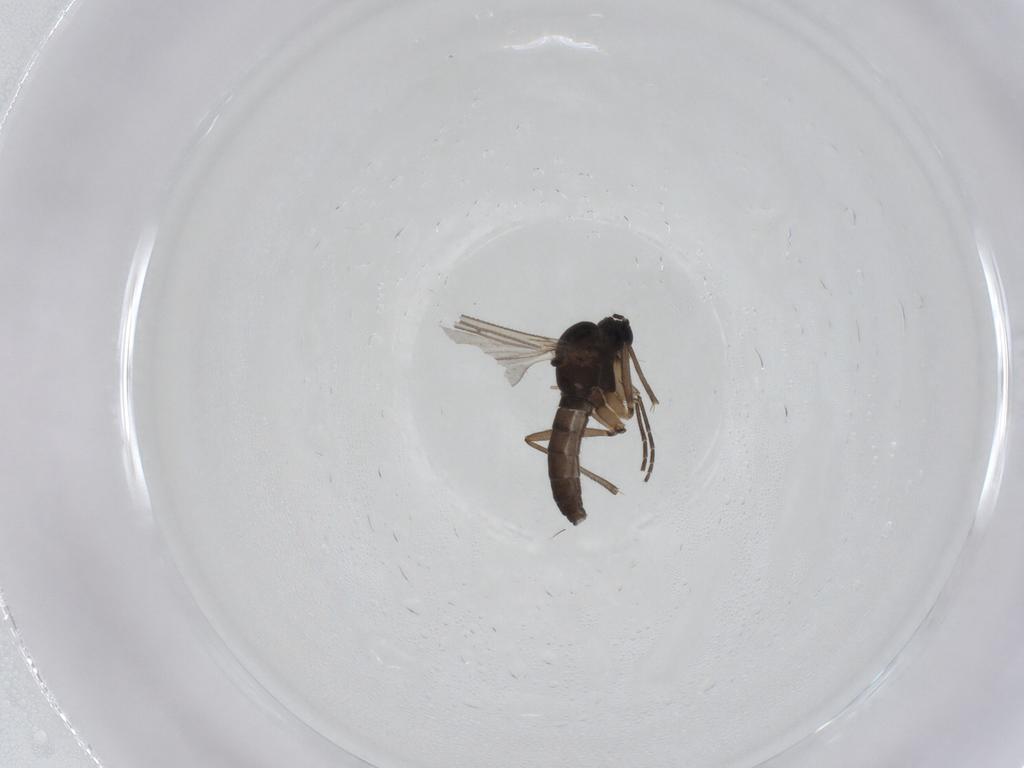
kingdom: Animalia
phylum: Arthropoda
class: Insecta
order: Diptera
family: Sciaridae
